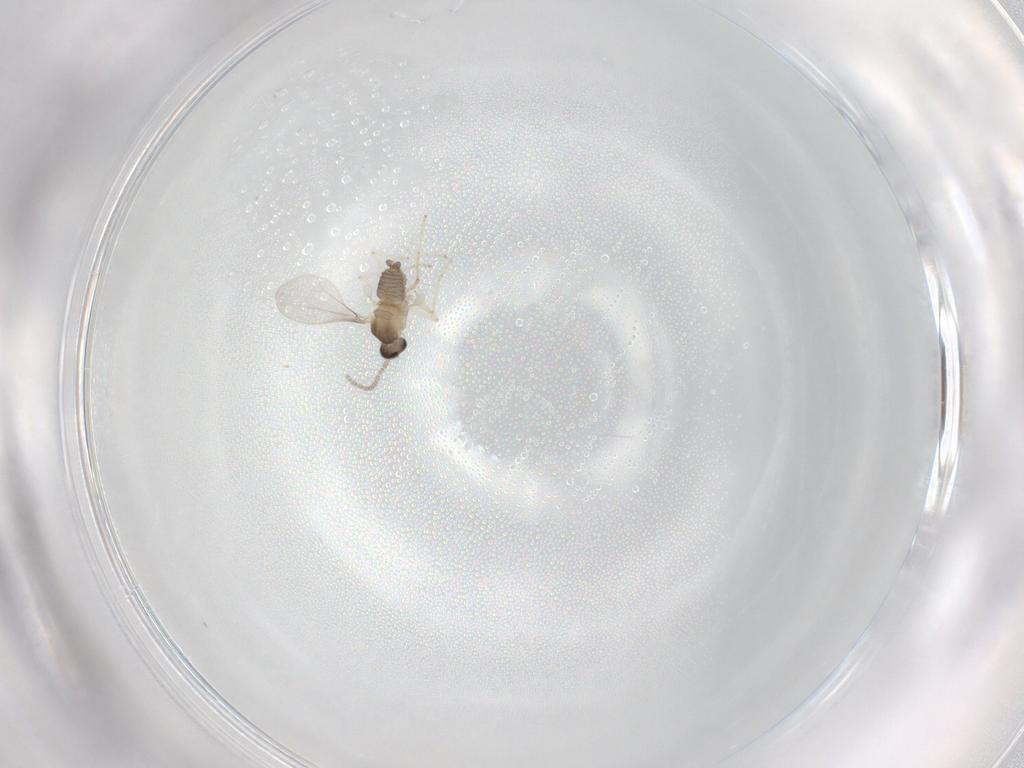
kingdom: Animalia
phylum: Arthropoda
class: Insecta
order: Diptera
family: Cecidomyiidae
